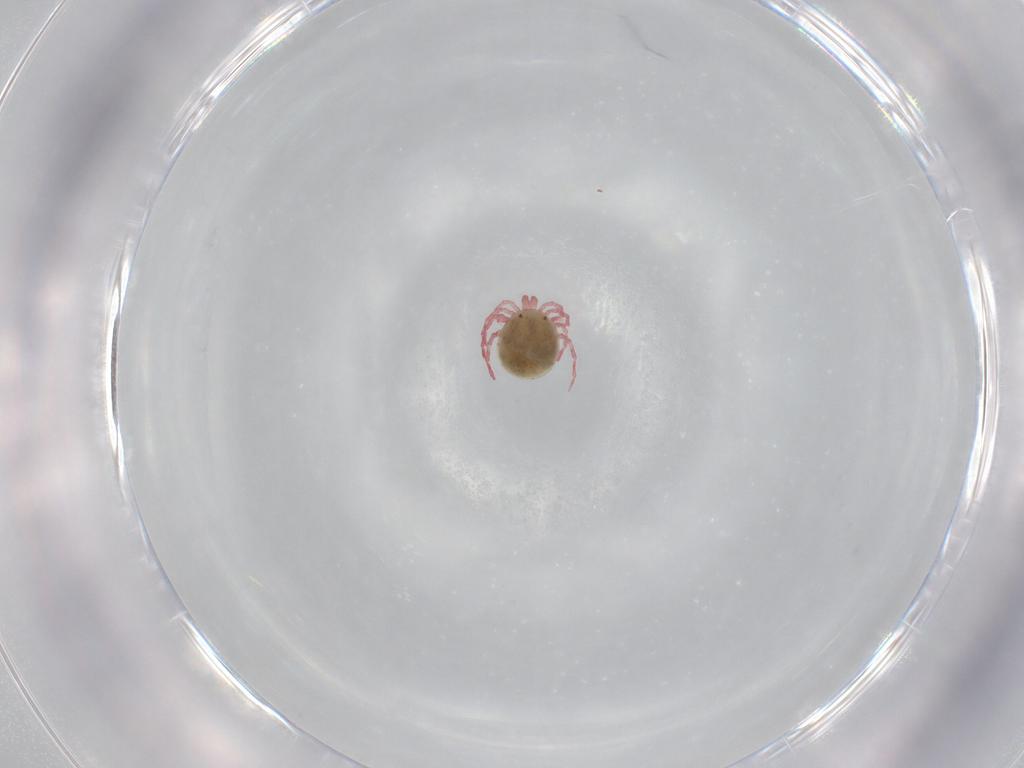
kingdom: Animalia
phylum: Arthropoda
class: Arachnida
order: Trombidiformes
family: Pionidae
